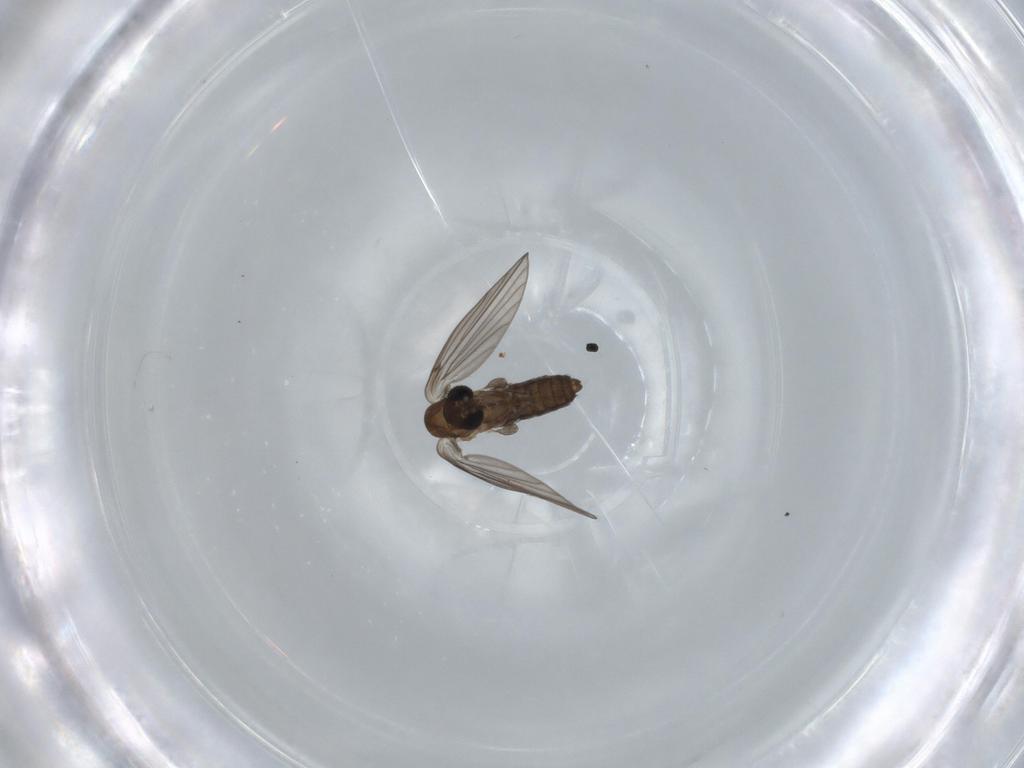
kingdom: Animalia
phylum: Arthropoda
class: Insecta
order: Diptera
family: Psychodidae
